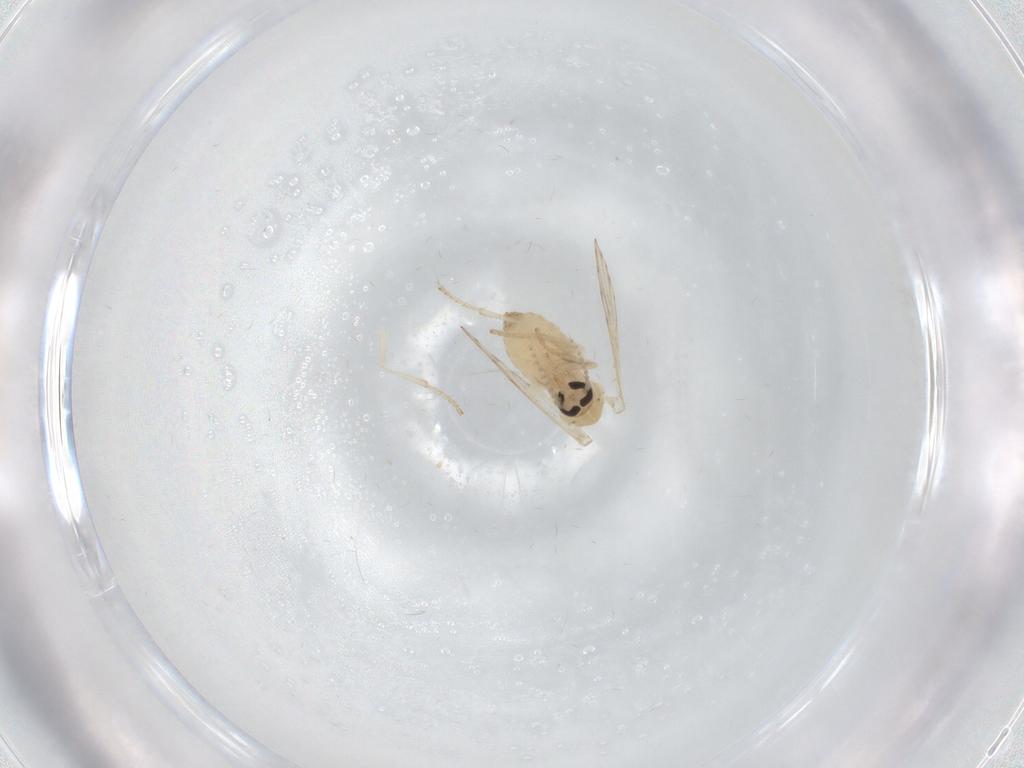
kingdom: Animalia
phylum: Arthropoda
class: Insecta
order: Diptera
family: Psychodidae
